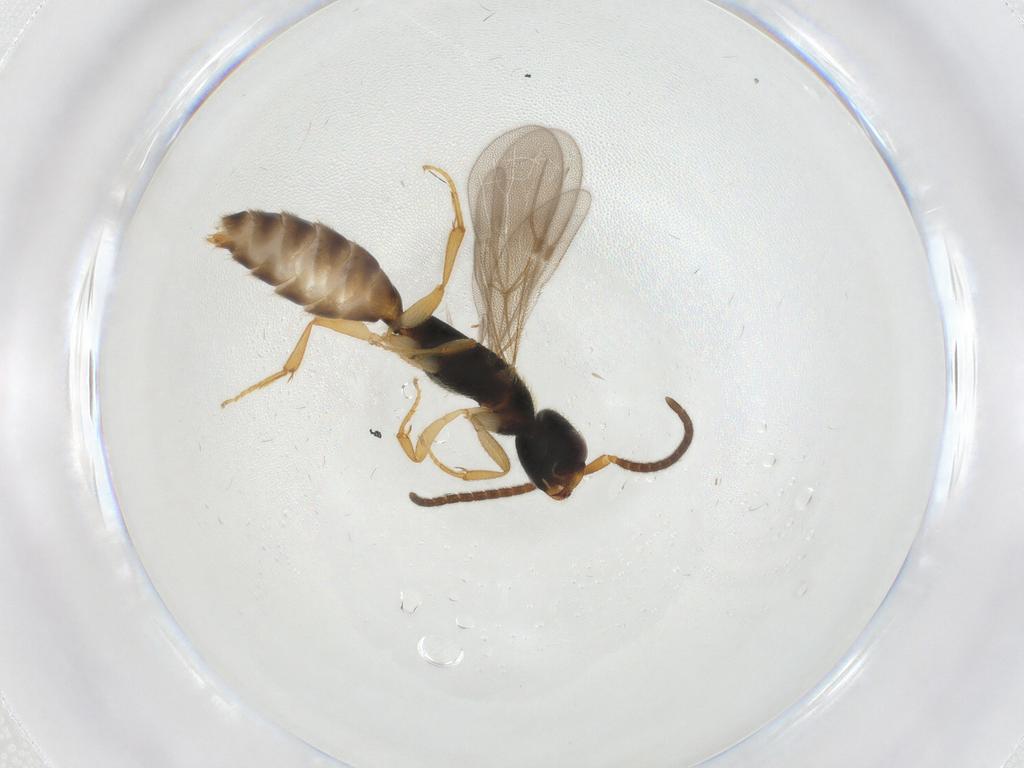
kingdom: Animalia
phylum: Arthropoda
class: Insecta
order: Hymenoptera
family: Bethylidae
